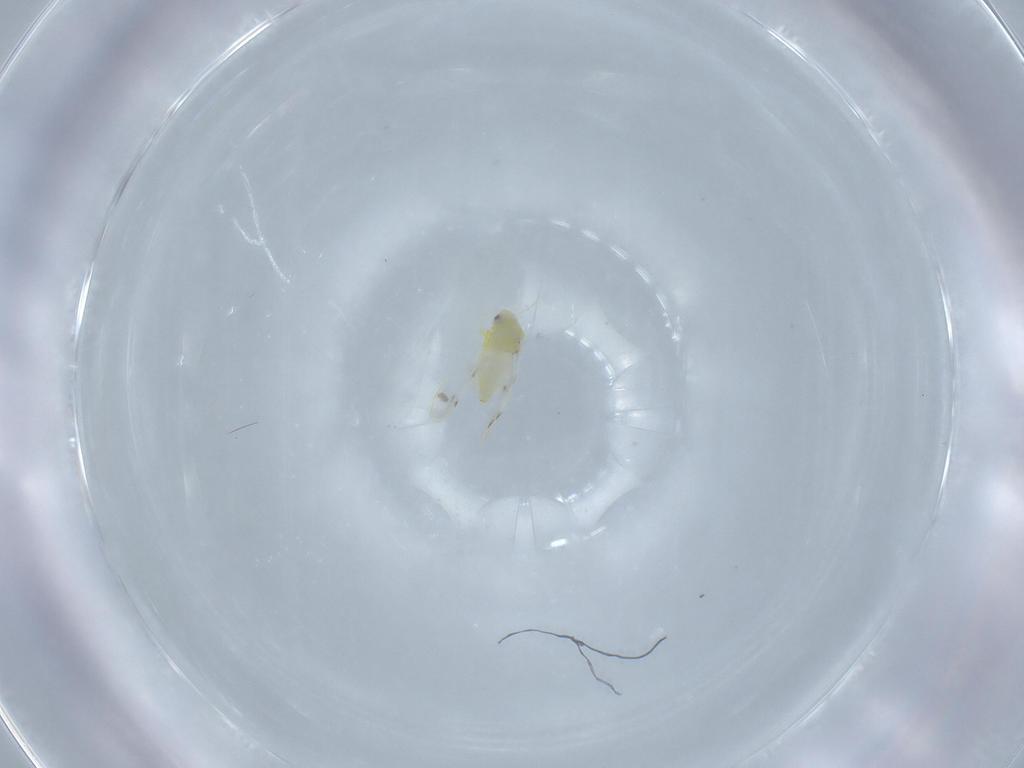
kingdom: Animalia
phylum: Arthropoda
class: Insecta
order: Hemiptera
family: Aleyrodidae
